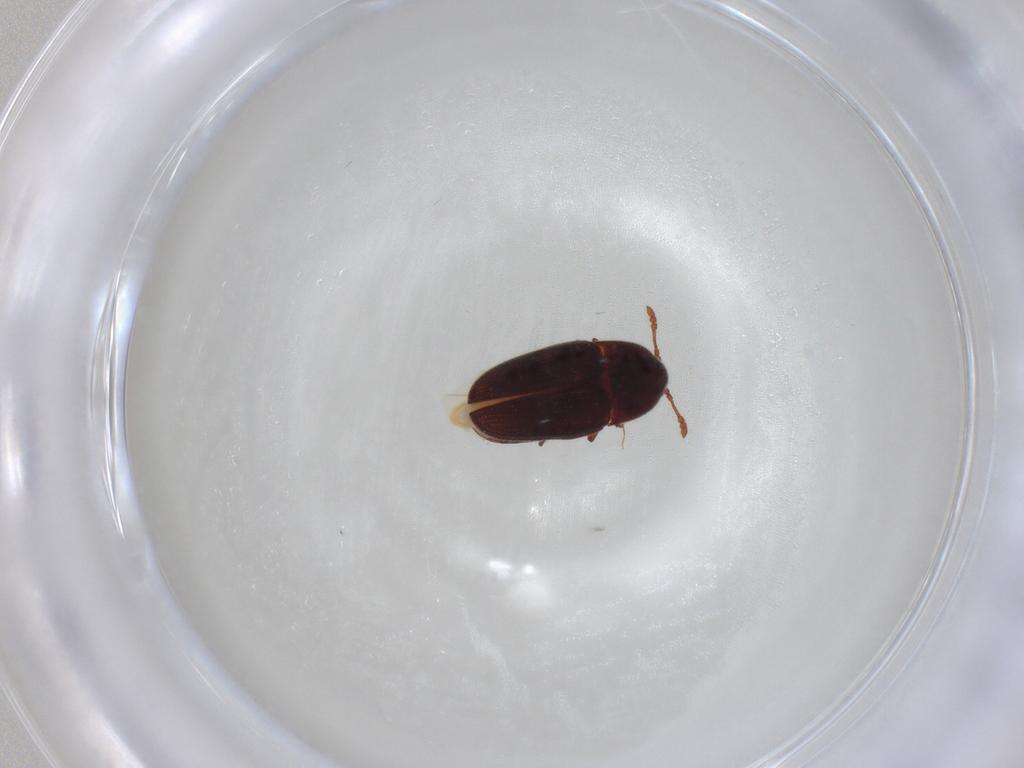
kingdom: Animalia
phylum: Arthropoda
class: Insecta
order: Coleoptera
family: Throscidae
